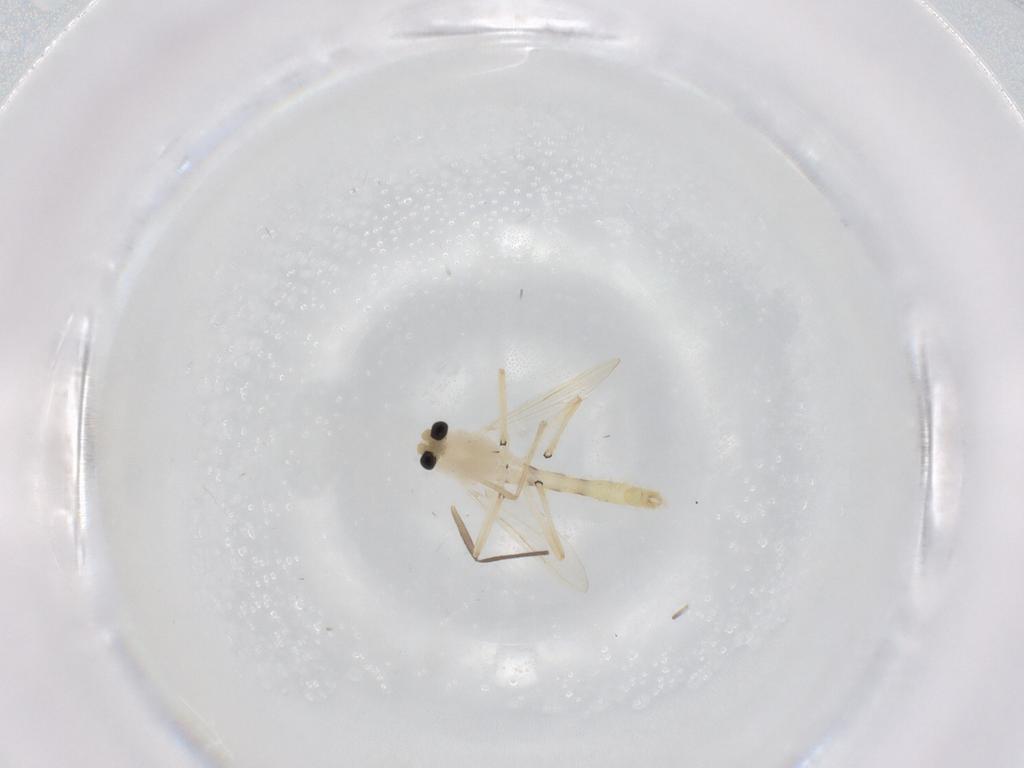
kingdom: Animalia
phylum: Arthropoda
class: Insecta
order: Diptera
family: Chironomidae
